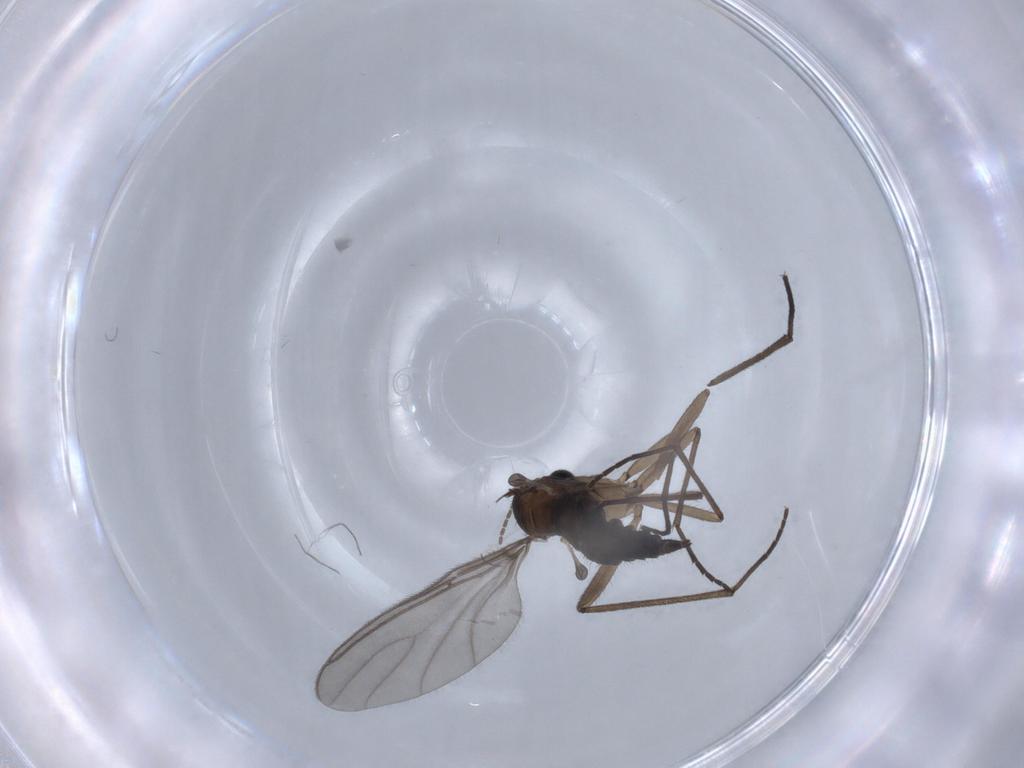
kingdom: Animalia
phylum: Arthropoda
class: Insecta
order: Diptera
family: Sciaridae
